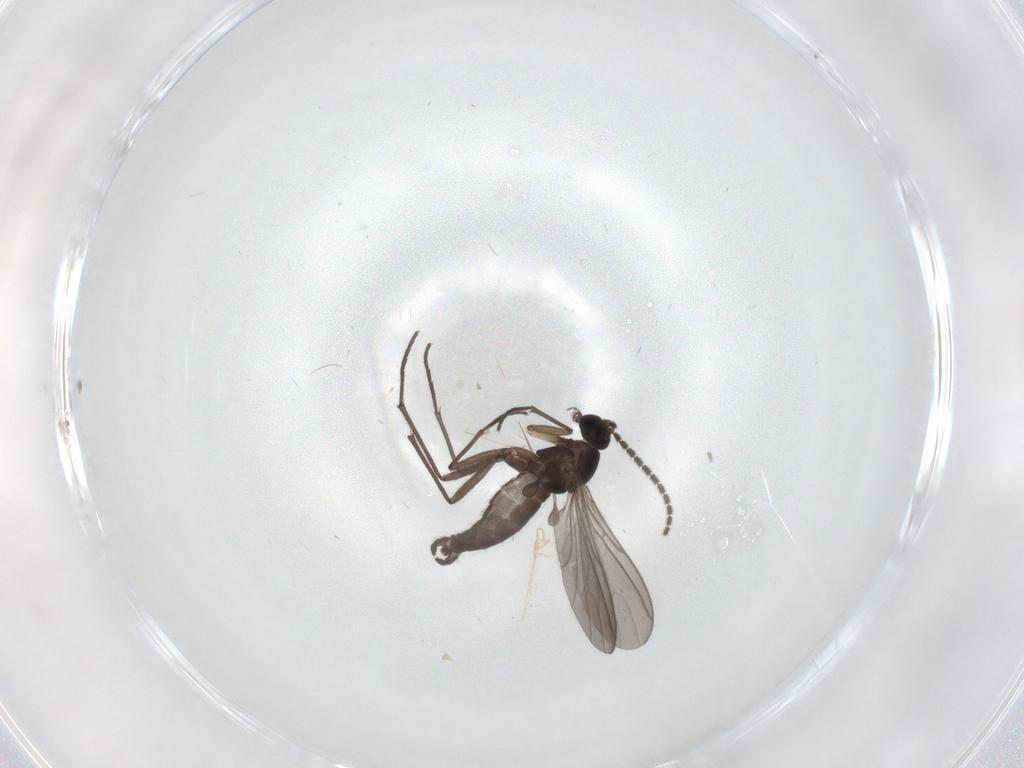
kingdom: Animalia
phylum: Arthropoda
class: Insecta
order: Diptera
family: Sciaridae
